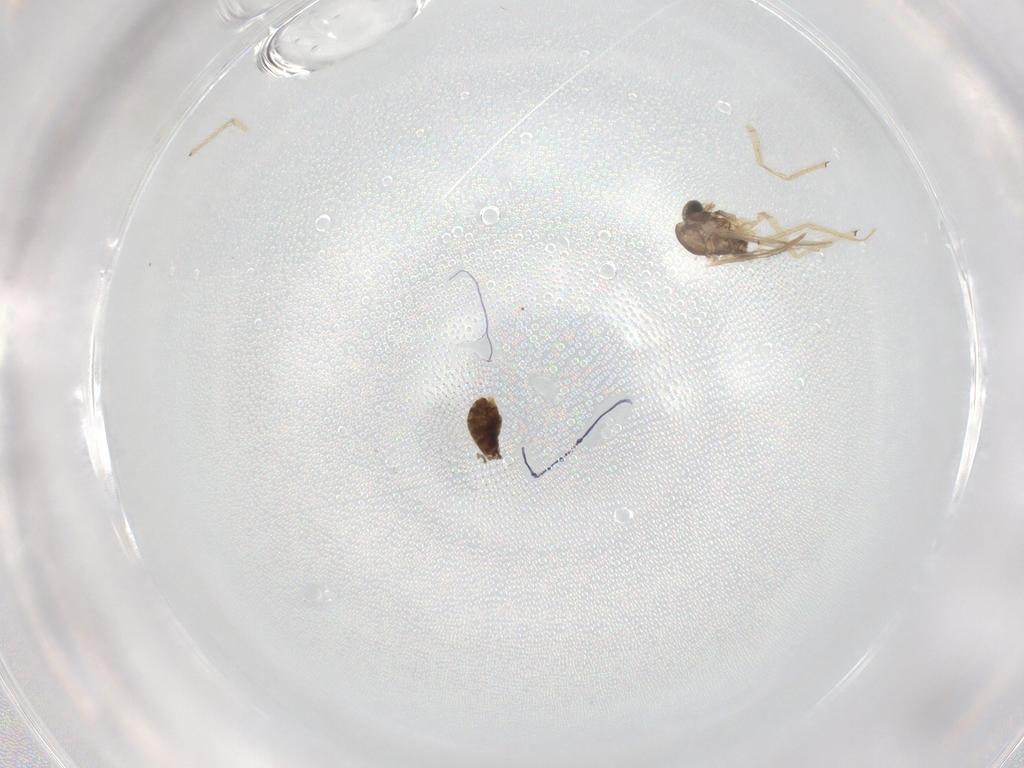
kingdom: Animalia
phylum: Arthropoda
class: Insecta
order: Diptera
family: Chironomidae
